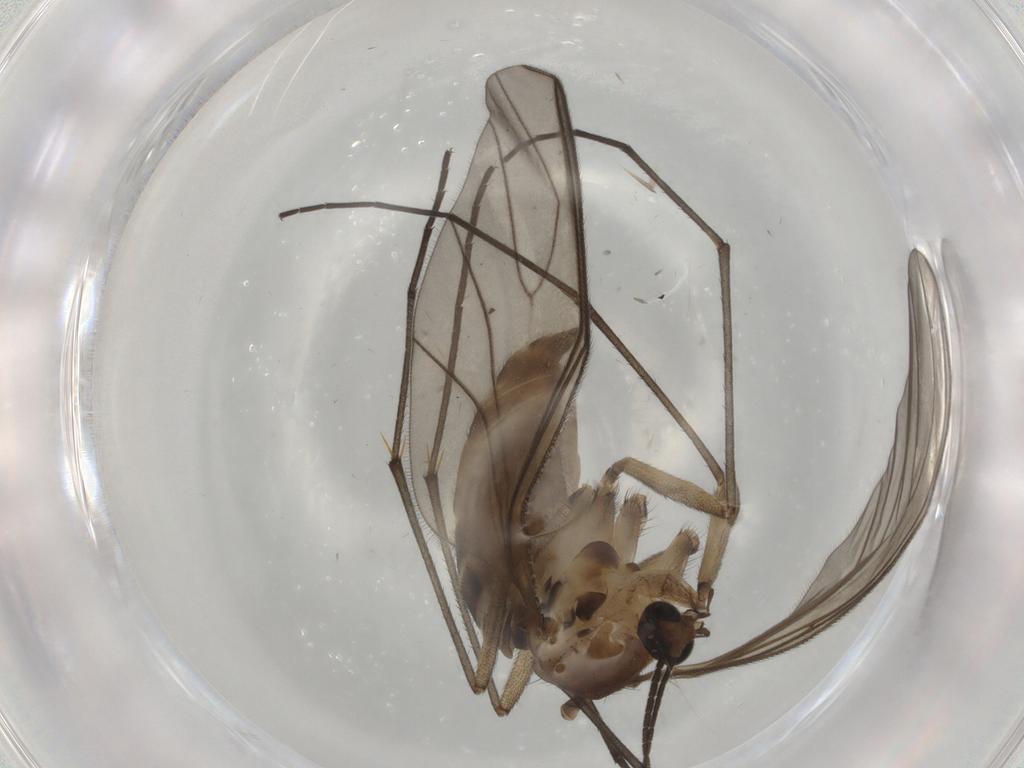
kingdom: Animalia
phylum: Arthropoda
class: Insecta
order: Diptera
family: Sciaridae
